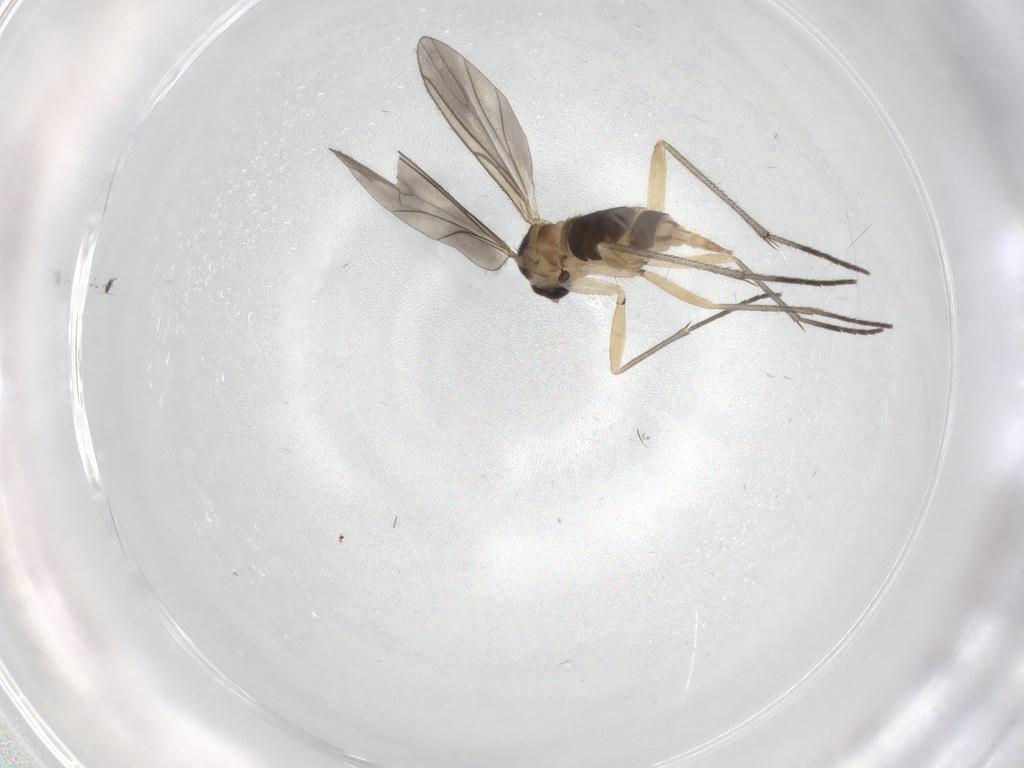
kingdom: Animalia
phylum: Arthropoda
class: Insecta
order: Diptera
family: Sciaridae
